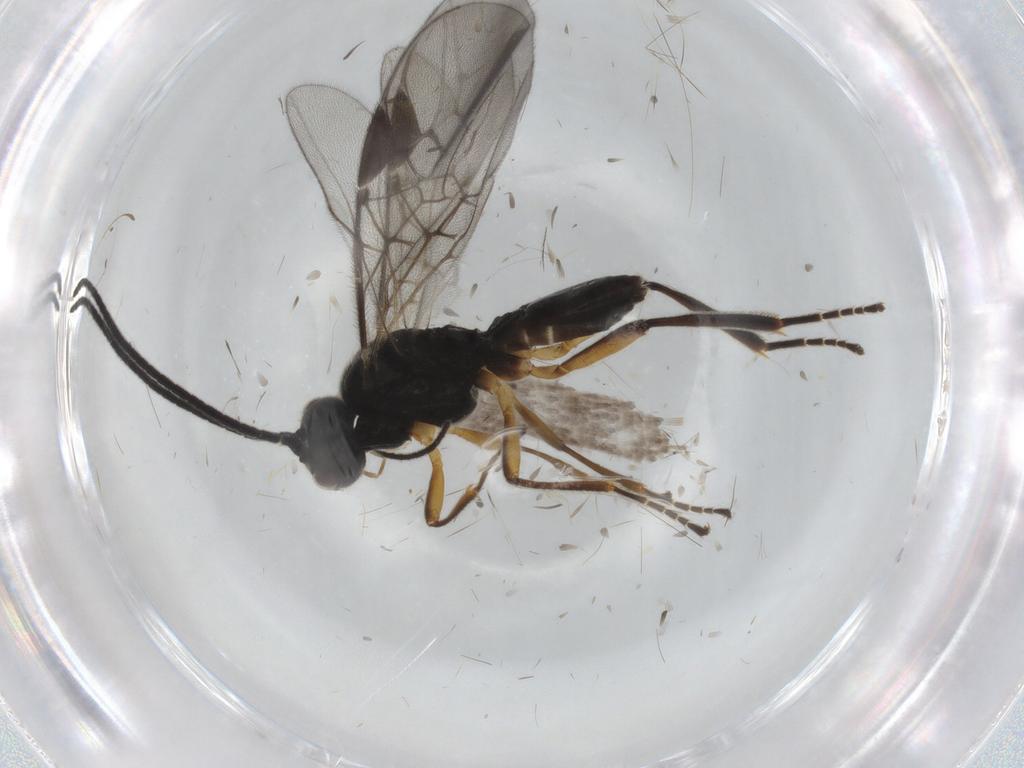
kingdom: Animalia
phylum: Arthropoda
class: Insecta
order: Hymenoptera
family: Braconidae
